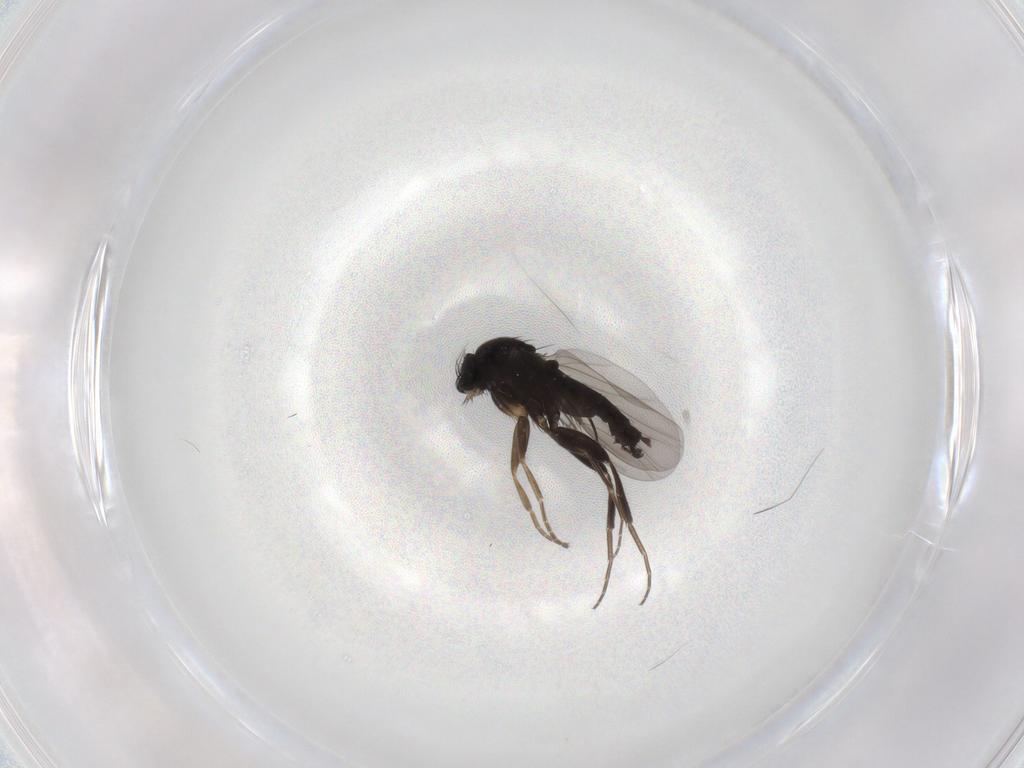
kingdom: Animalia
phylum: Arthropoda
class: Insecta
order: Diptera
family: Phoridae
